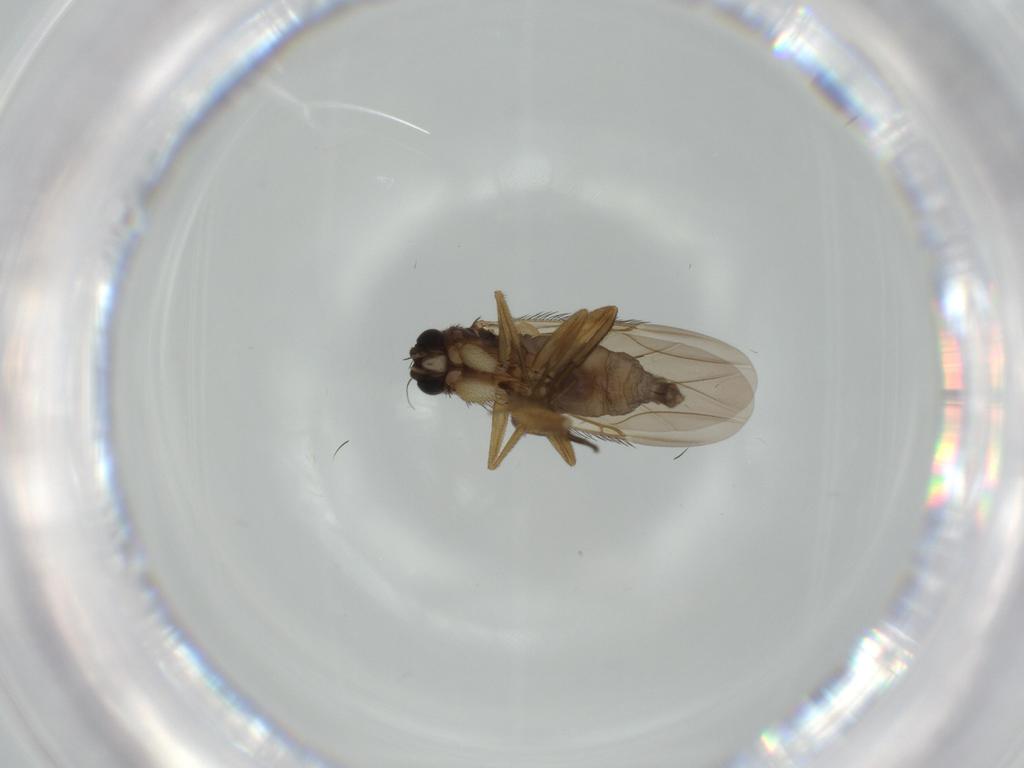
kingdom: Animalia
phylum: Arthropoda
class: Insecta
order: Diptera
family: Phoridae
